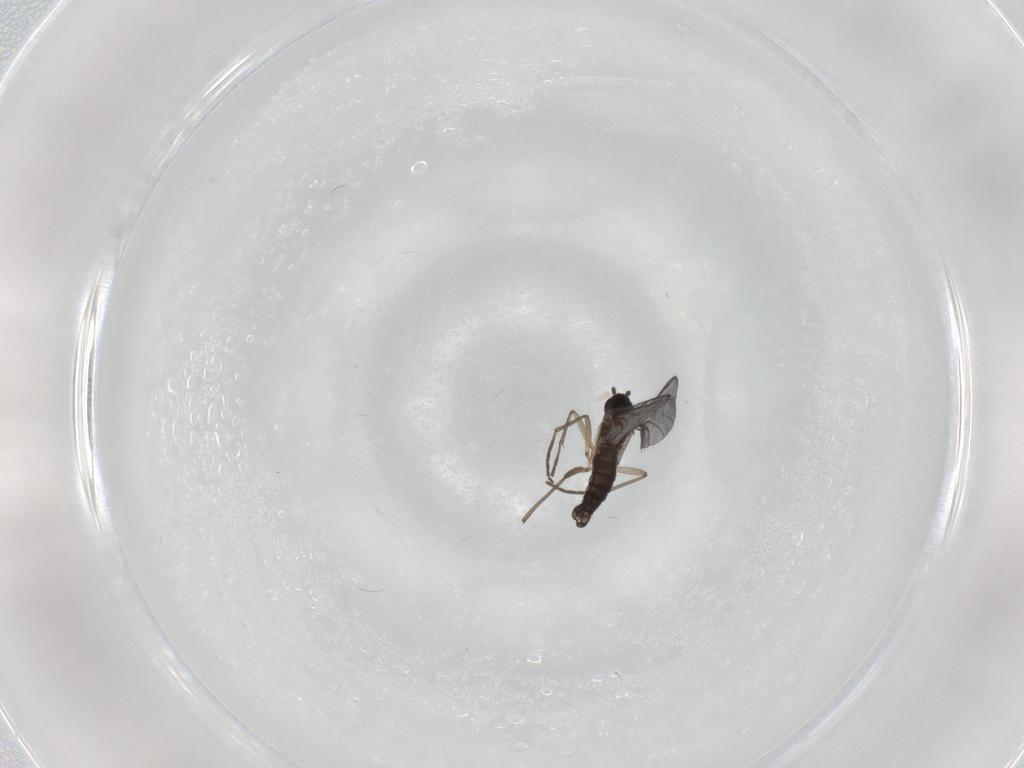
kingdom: Animalia
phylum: Arthropoda
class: Insecta
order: Diptera
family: Sciaridae
